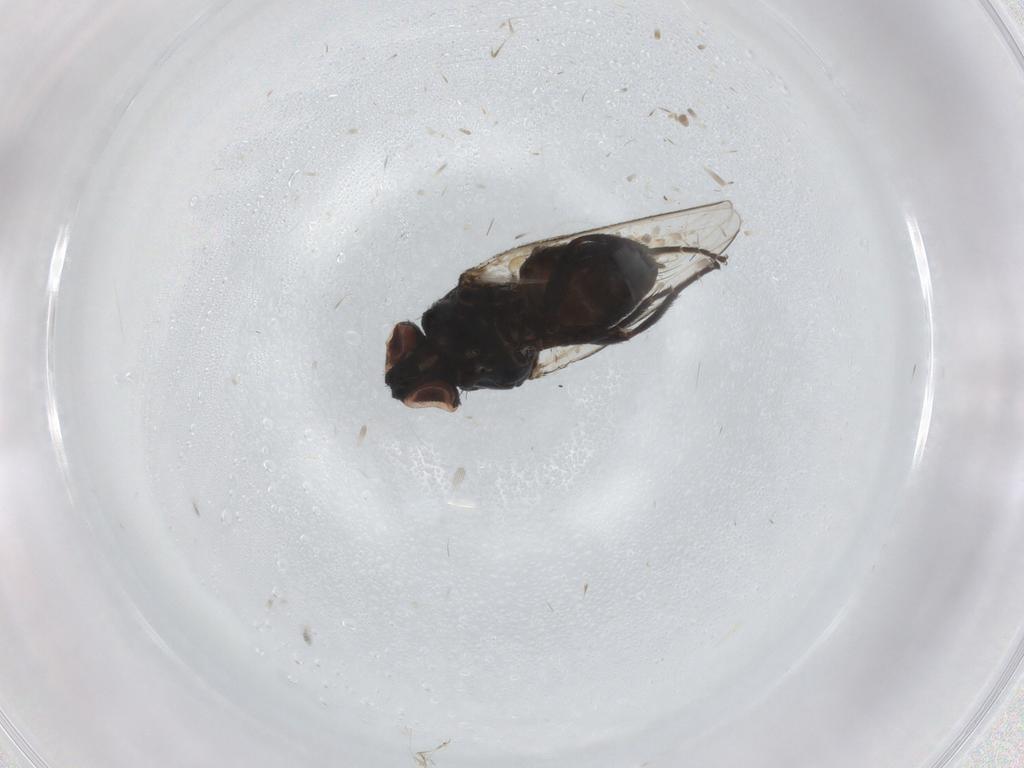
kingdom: Animalia
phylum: Arthropoda
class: Insecta
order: Diptera
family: Milichiidae
